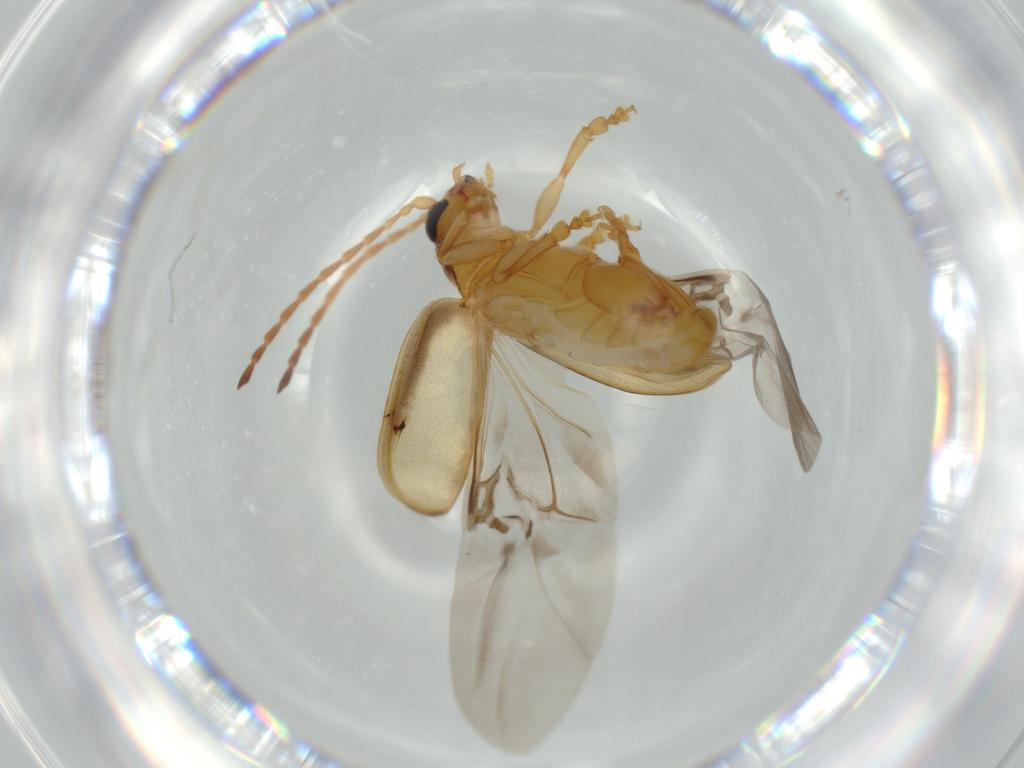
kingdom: Animalia
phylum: Arthropoda
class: Insecta
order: Coleoptera
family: Chrysomelidae
